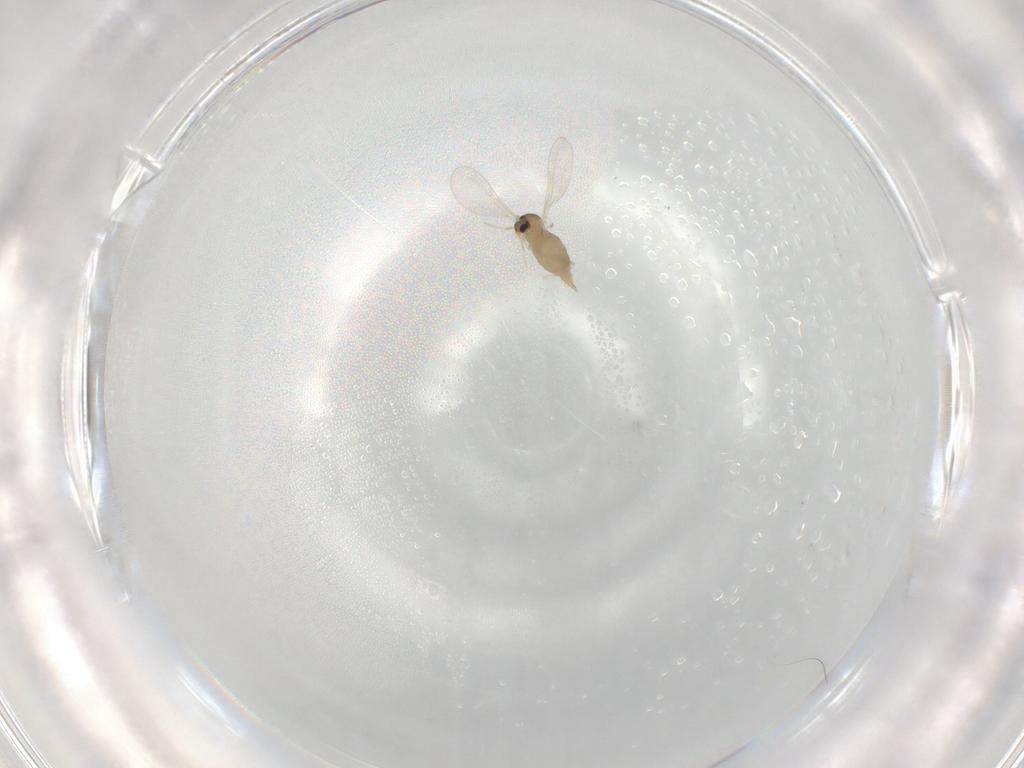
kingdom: Animalia
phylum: Arthropoda
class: Insecta
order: Diptera
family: Cecidomyiidae
